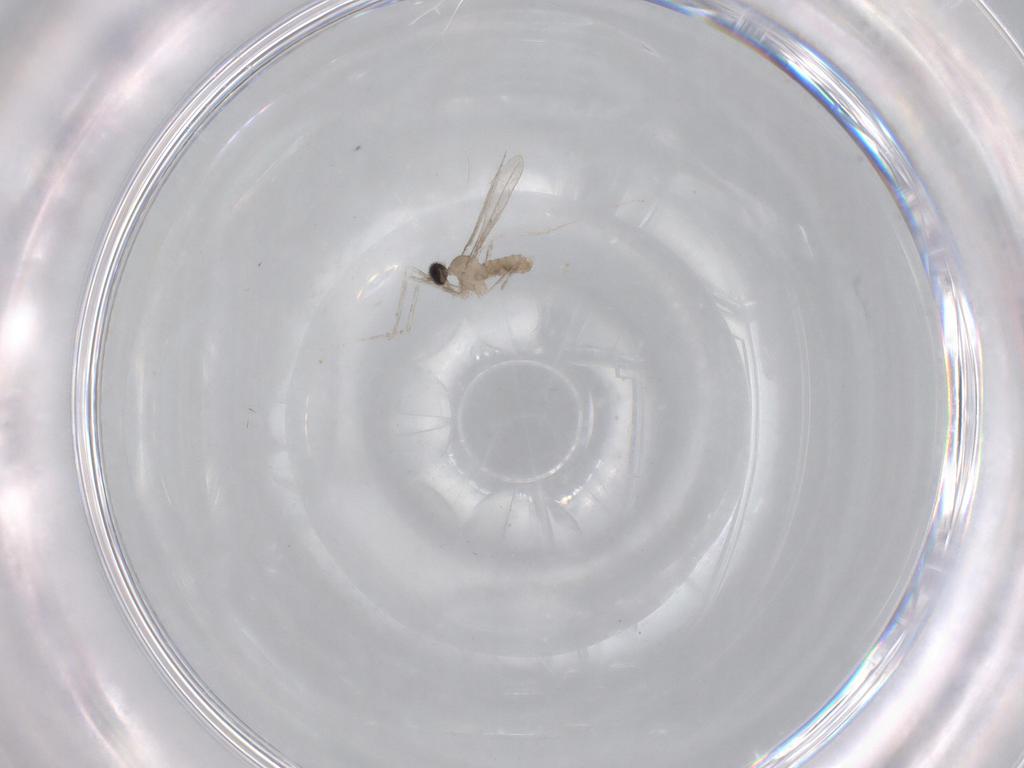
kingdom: Animalia
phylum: Arthropoda
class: Insecta
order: Diptera
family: Cecidomyiidae
